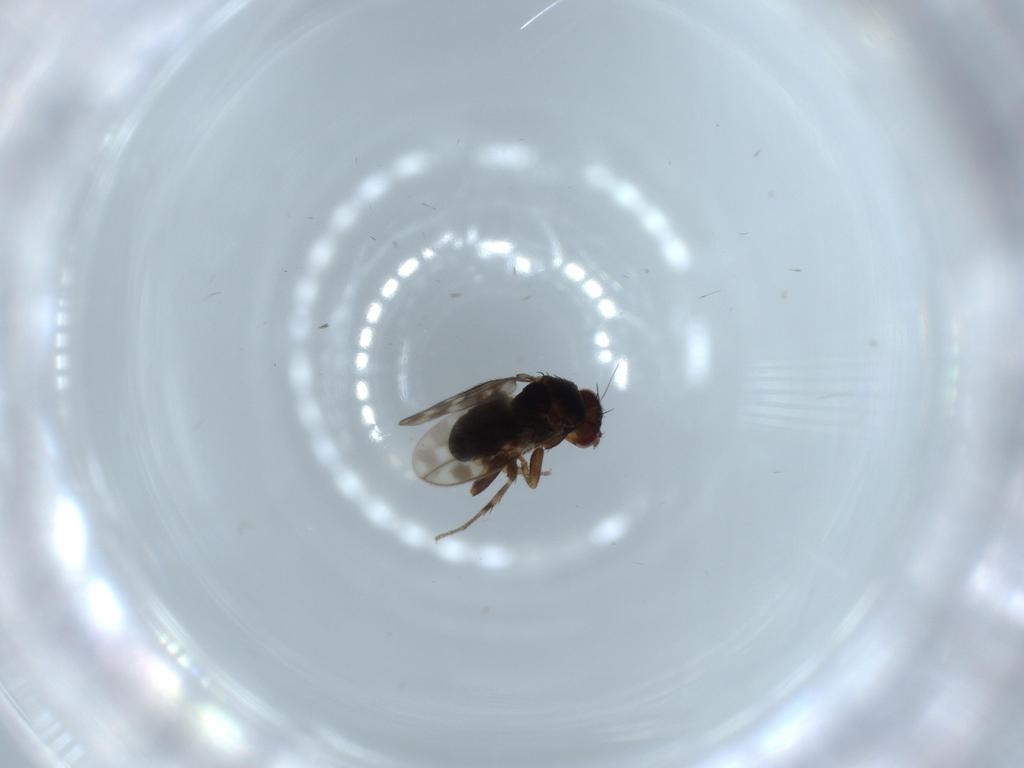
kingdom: Animalia
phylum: Arthropoda
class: Insecta
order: Diptera
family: Sphaeroceridae
